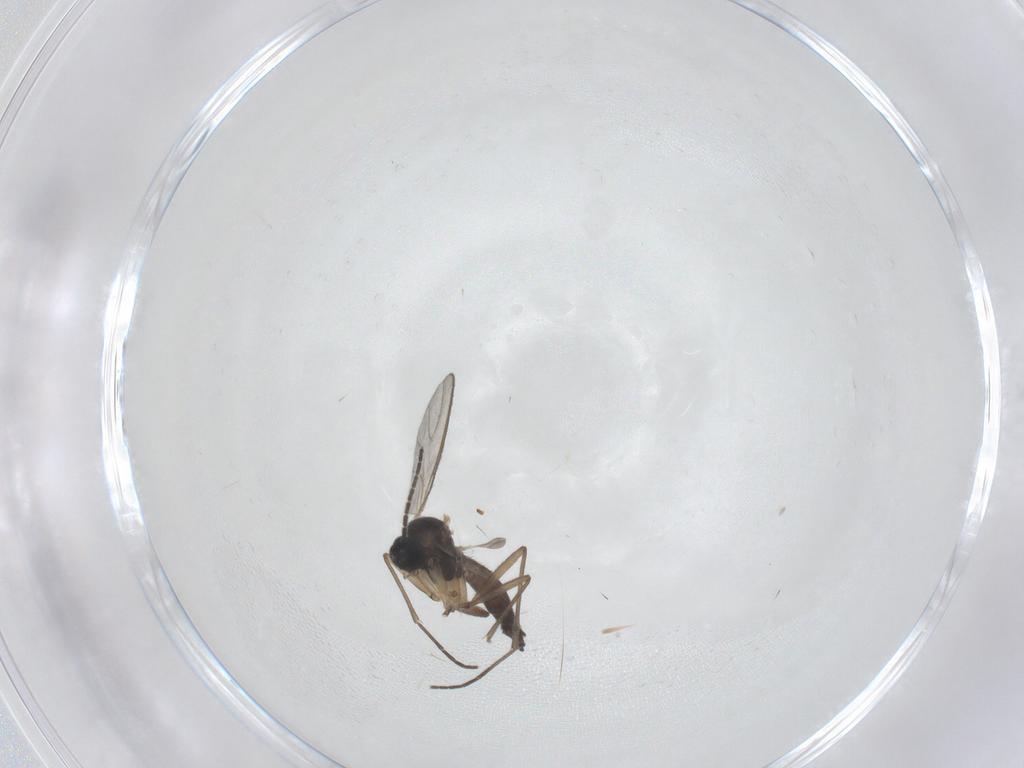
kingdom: Animalia
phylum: Arthropoda
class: Insecta
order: Diptera
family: Sciaridae
